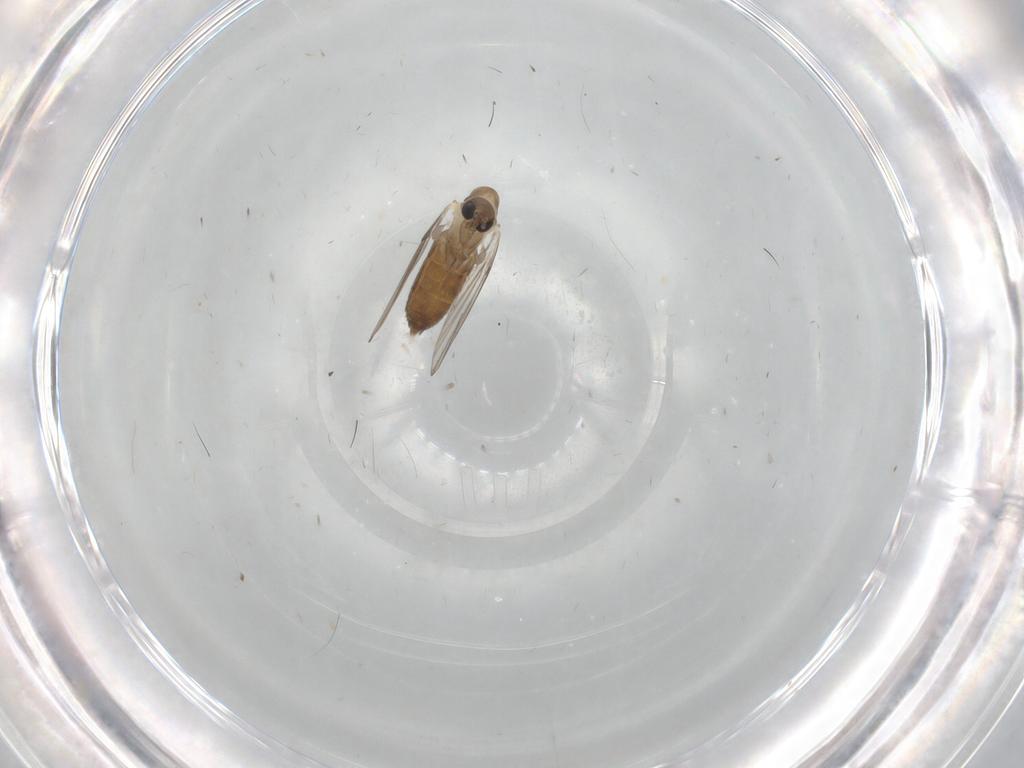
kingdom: Animalia
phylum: Arthropoda
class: Insecta
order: Diptera
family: Psychodidae
